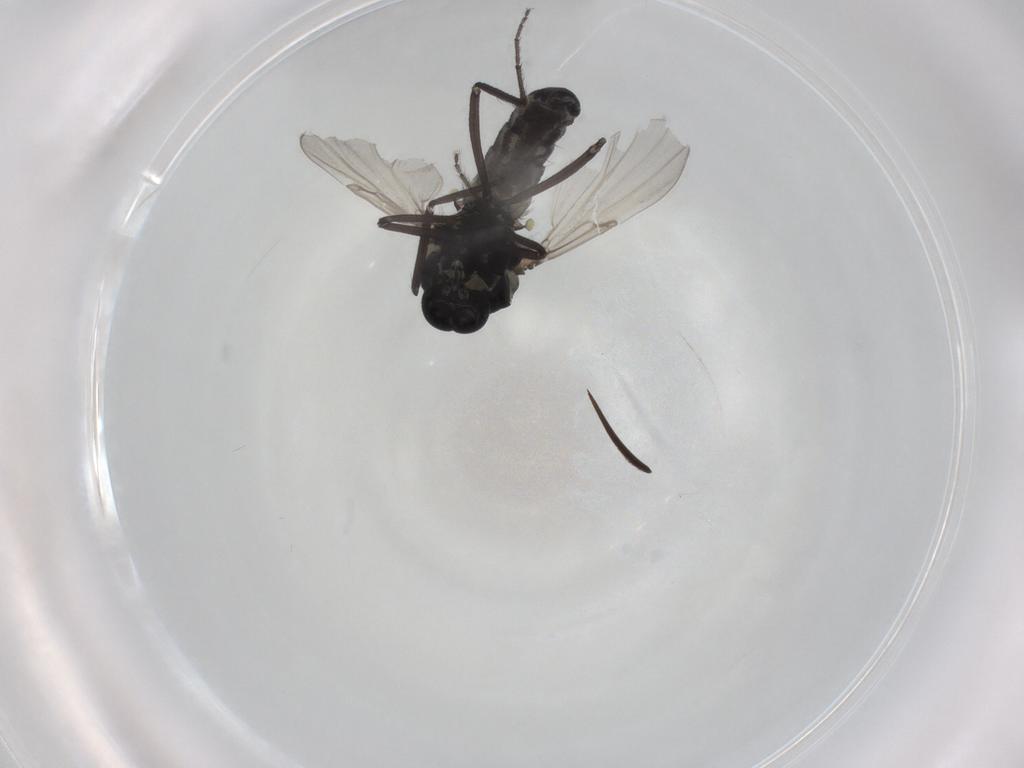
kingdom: Animalia
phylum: Arthropoda
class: Insecta
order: Diptera
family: Ceratopogonidae
